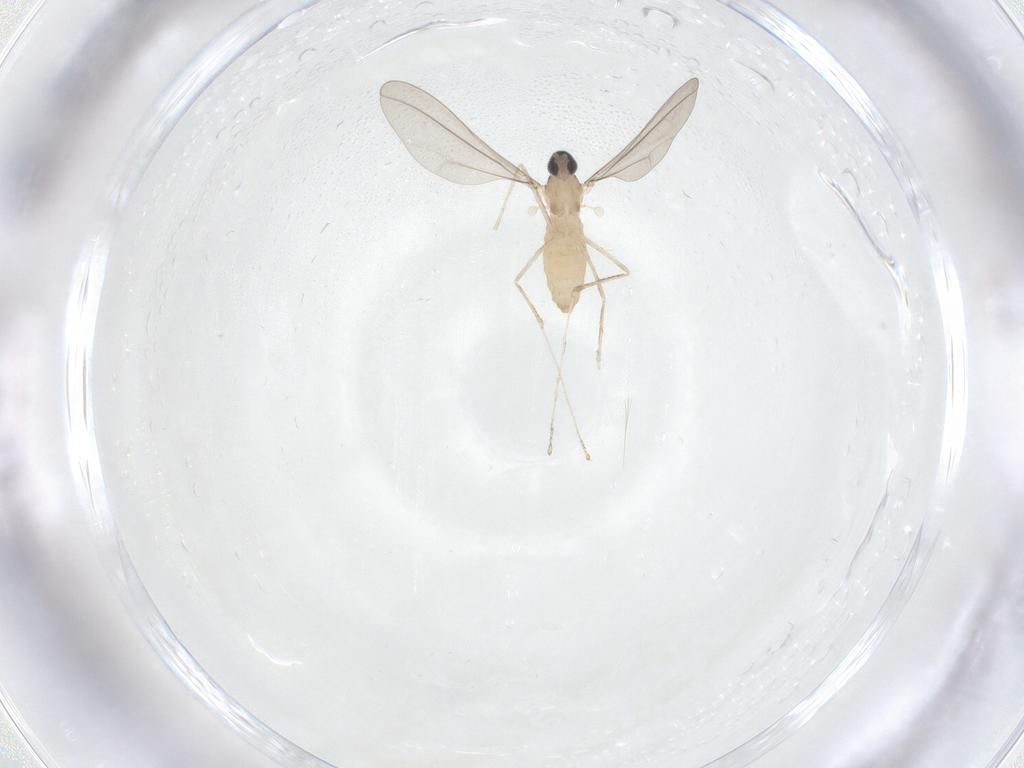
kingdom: Animalia
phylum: Arthropoda
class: Insecta
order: Diptera
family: Cecidomyiidae
